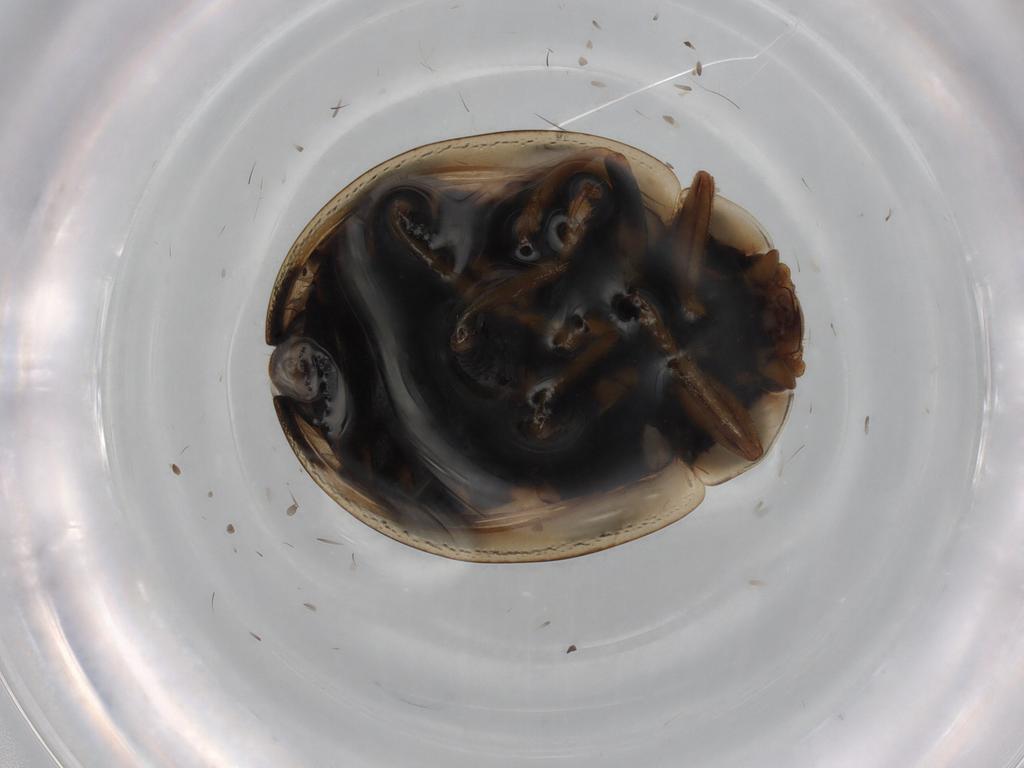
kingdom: Animalia
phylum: Arthropoda
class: Insecta
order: Coleoptera
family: Coccinellidae
